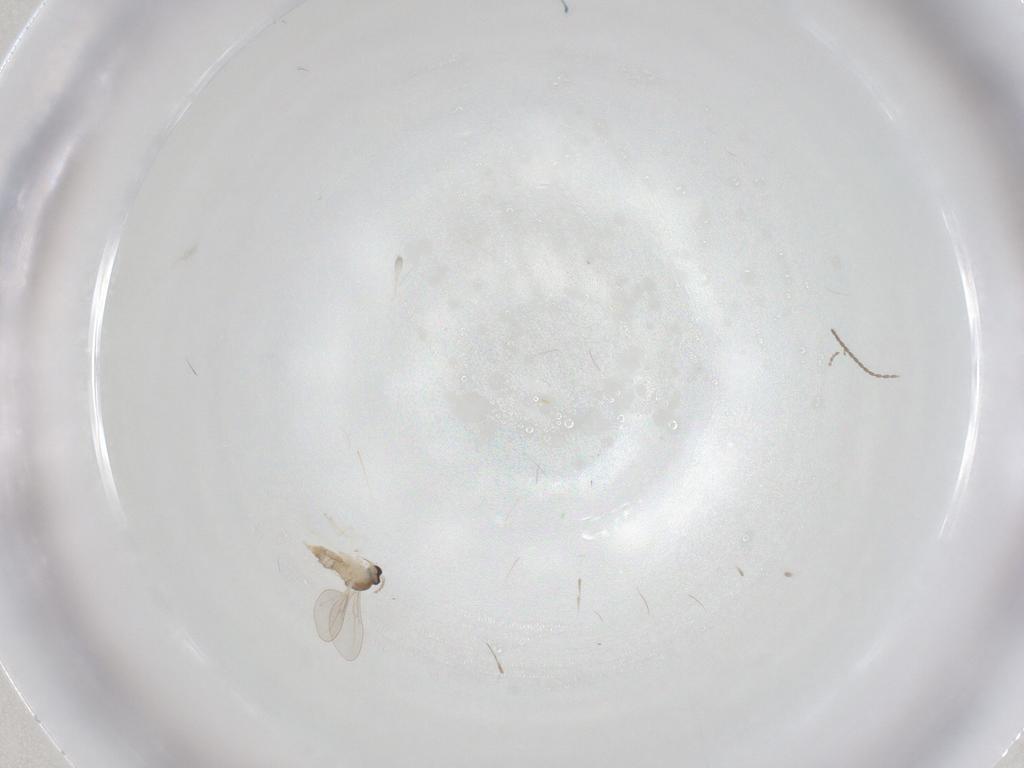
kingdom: Animalia
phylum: Arthropoda
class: Insecta
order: Diptera
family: Cecidomyiidae
